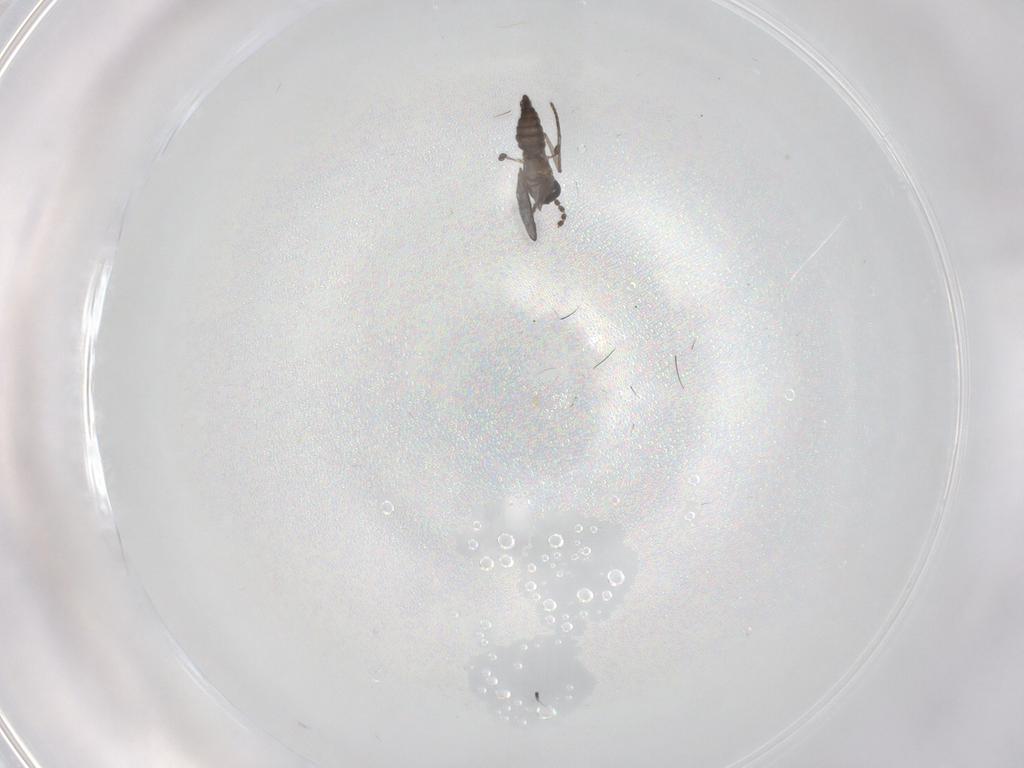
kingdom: Animalia
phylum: Arthropoda
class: Insecta
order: Diptera
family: Sciaridae
